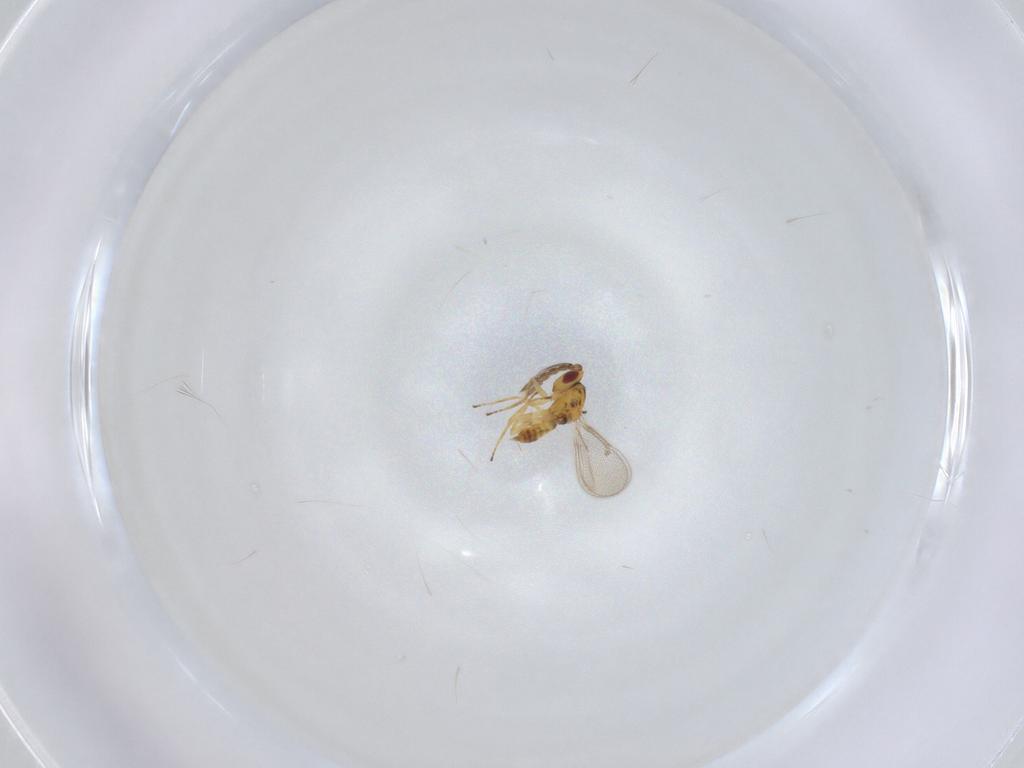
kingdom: Animalia
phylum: Arthropoda
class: Insecta
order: Hymenoptera
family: Eulophidae
